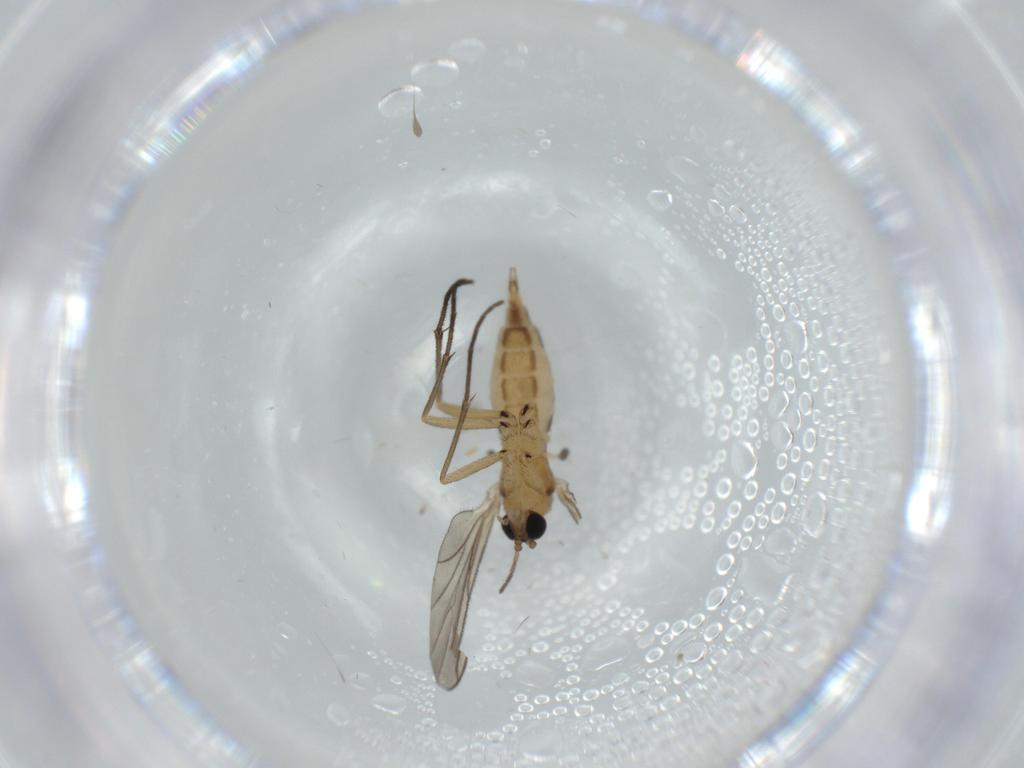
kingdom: Animalia
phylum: Arthropoda
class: Insecta
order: Diptera
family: Sciaridae
